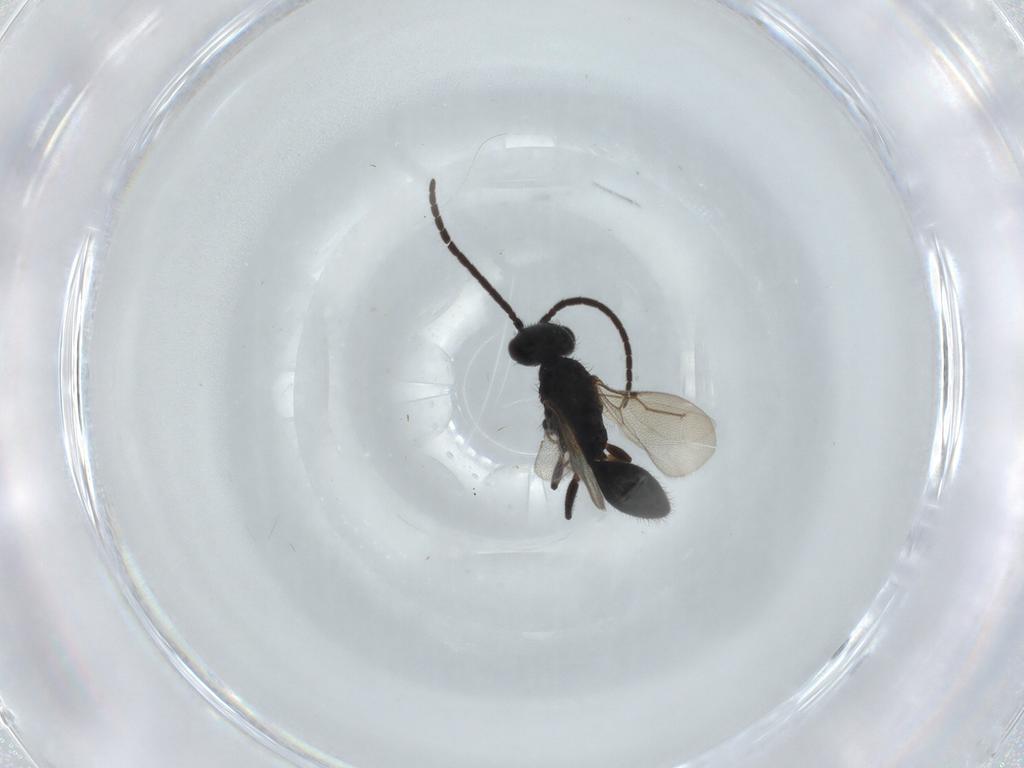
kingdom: Animalia
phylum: Arthropoda
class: Insecta
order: Hymenoptera
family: Bethylidae
